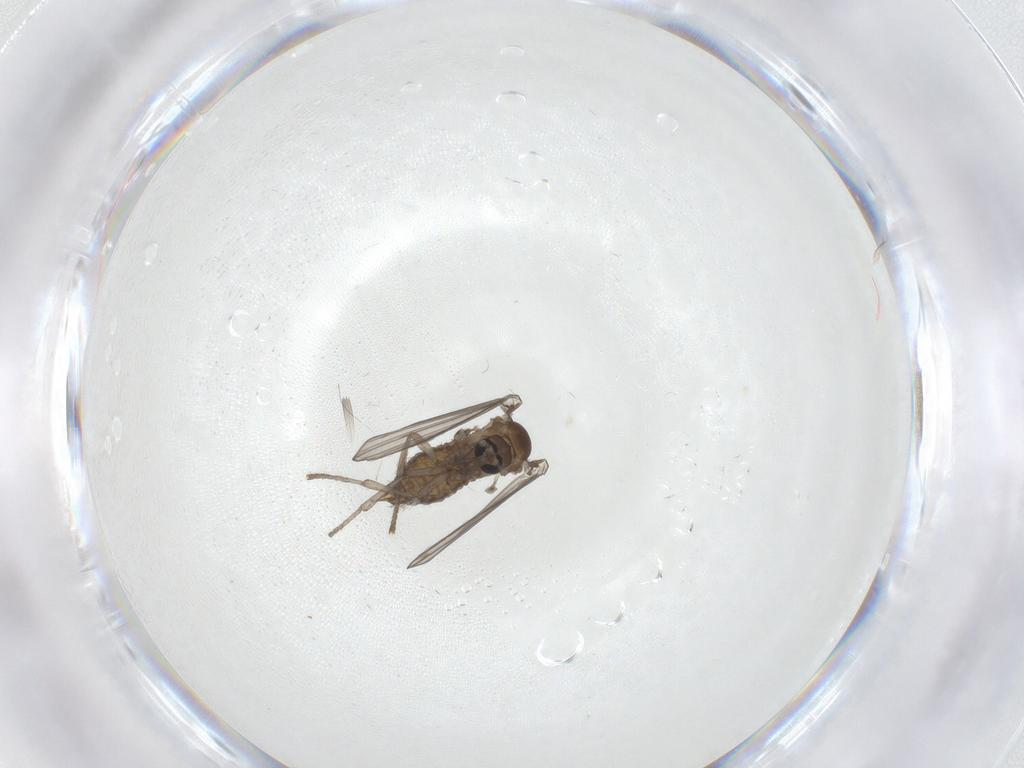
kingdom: Animalia
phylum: Arthropoda
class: Insecta
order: Diptera
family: Psychodidae
